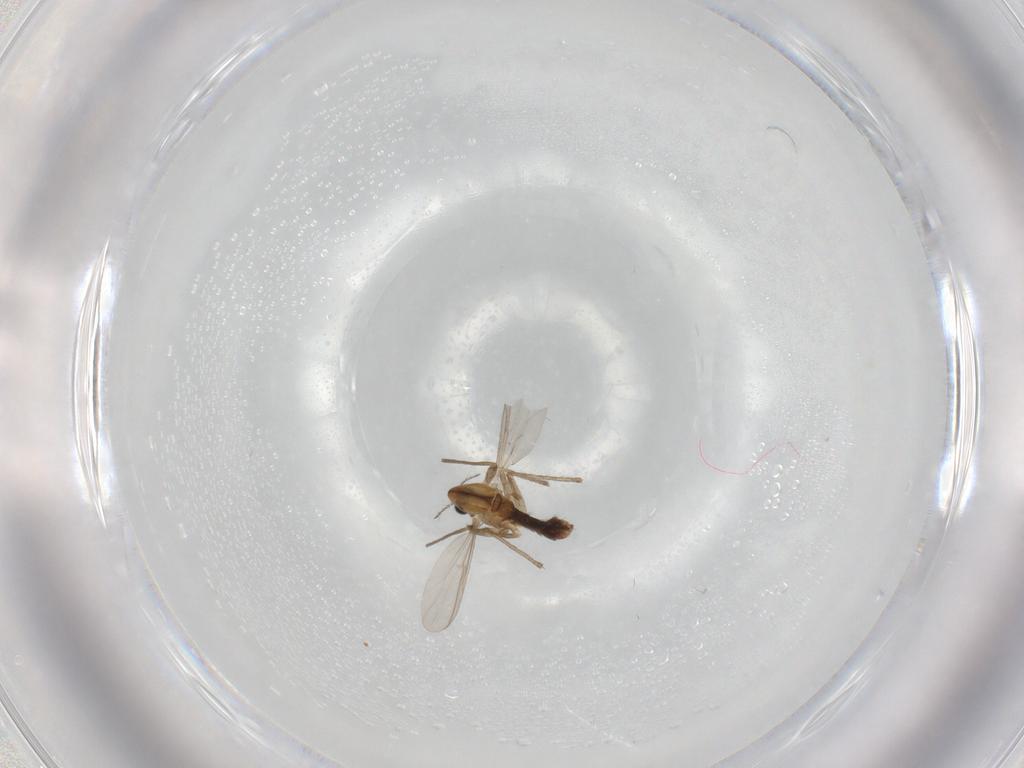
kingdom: Animalia
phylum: Arthropoda
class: Insecta
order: Diptera
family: Chironomidae
